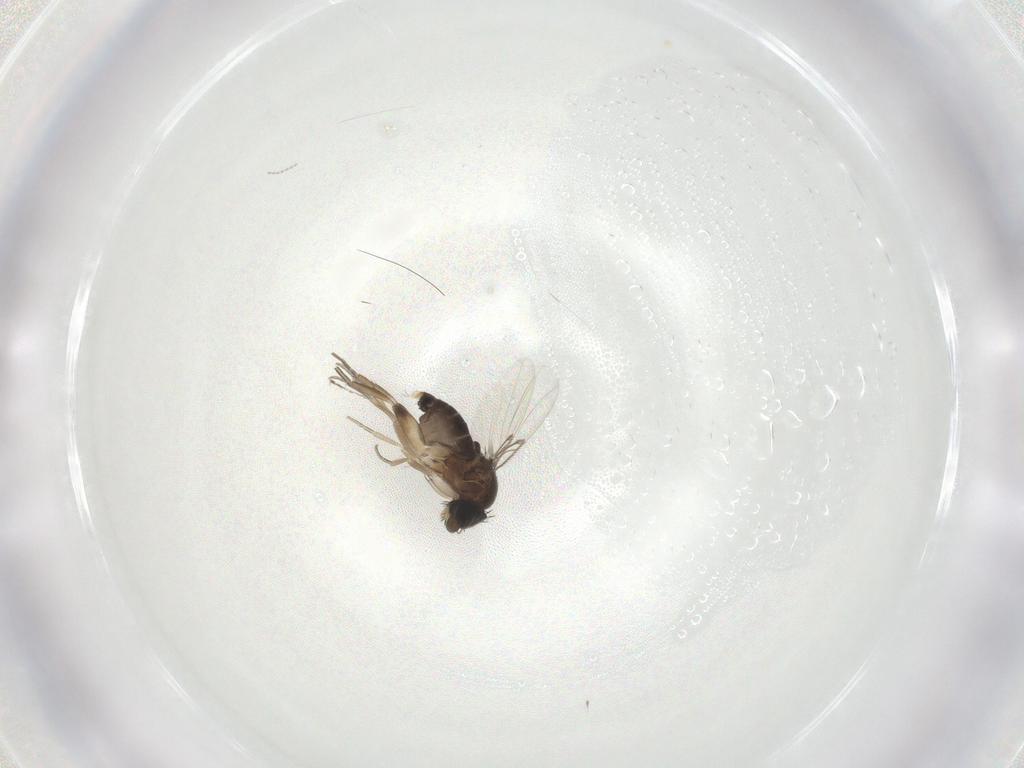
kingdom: Animalia
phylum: Arthropoda
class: Insecta
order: Diptera
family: Phoridae
